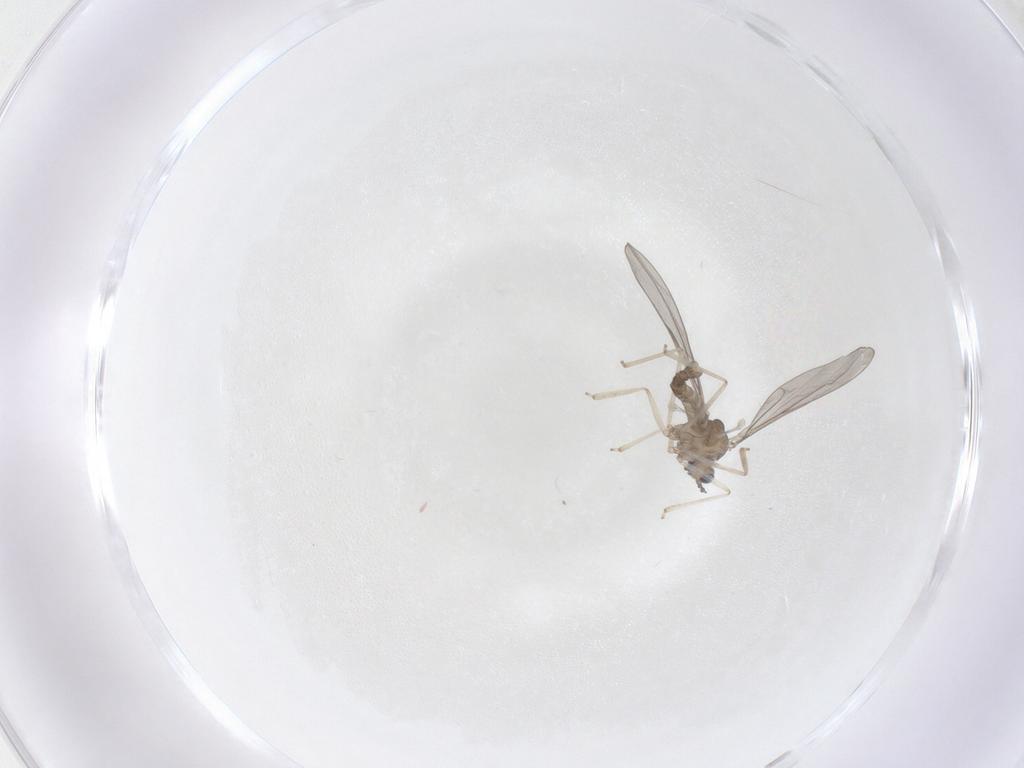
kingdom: Animalia
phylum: Arthropoda
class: Insecta
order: Diptera
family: Cecidomyiidae
